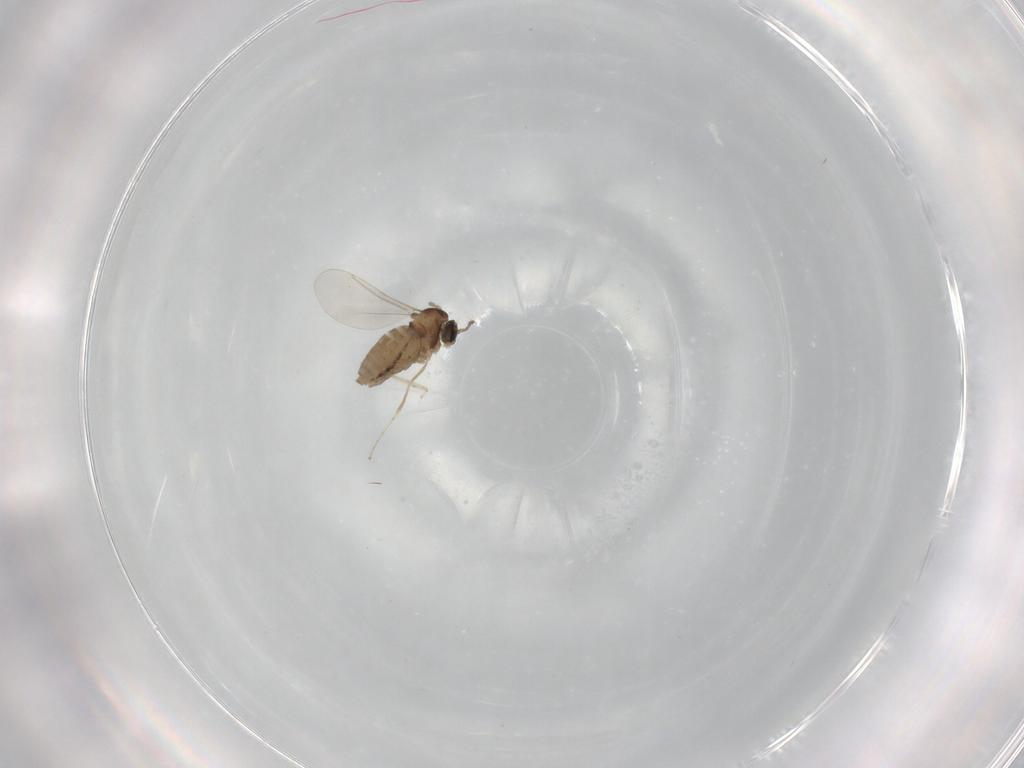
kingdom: Animalia
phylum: Arthropoda
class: Insecta
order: Diptera
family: Cecidomyiidae
